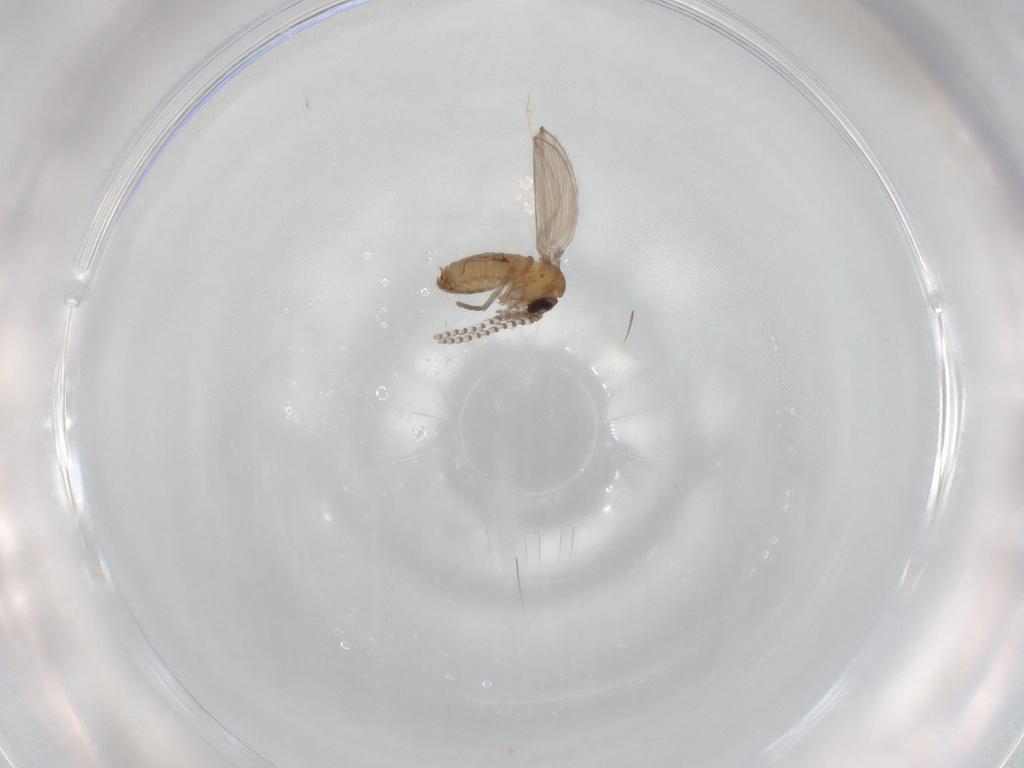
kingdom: Animalia
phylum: Arthropoda
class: Insecta
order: Diptera
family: Psychodidae
